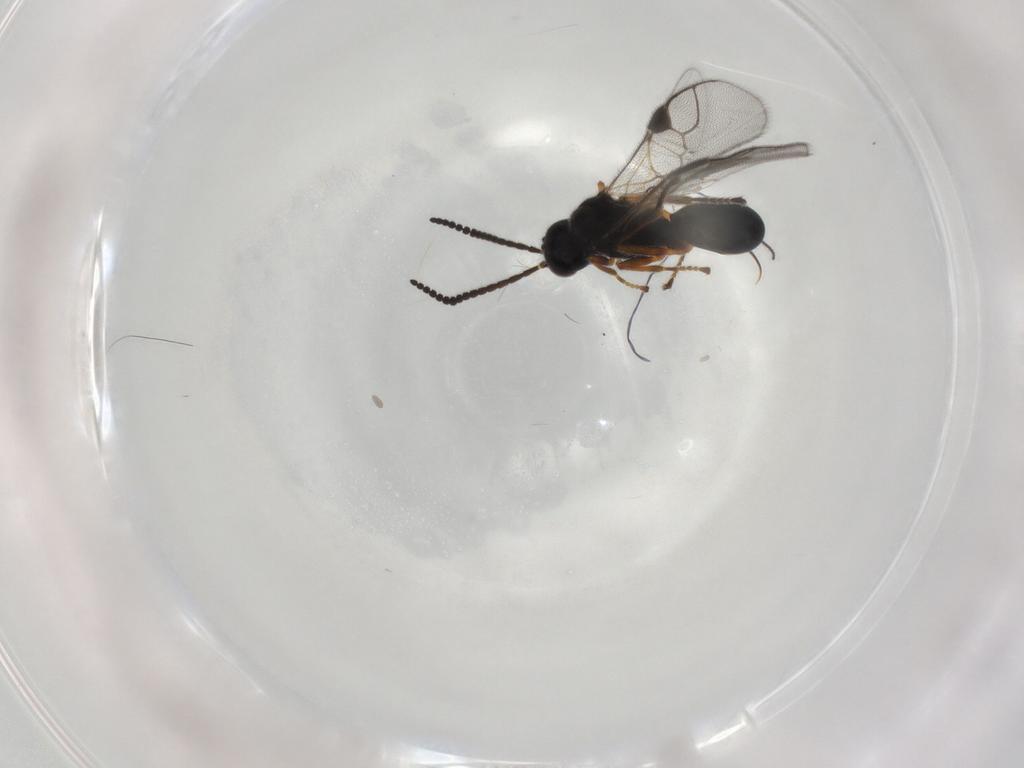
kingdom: Animalia
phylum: Arthropoda
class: Insecta
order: Hymenoptera
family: Braconidae
